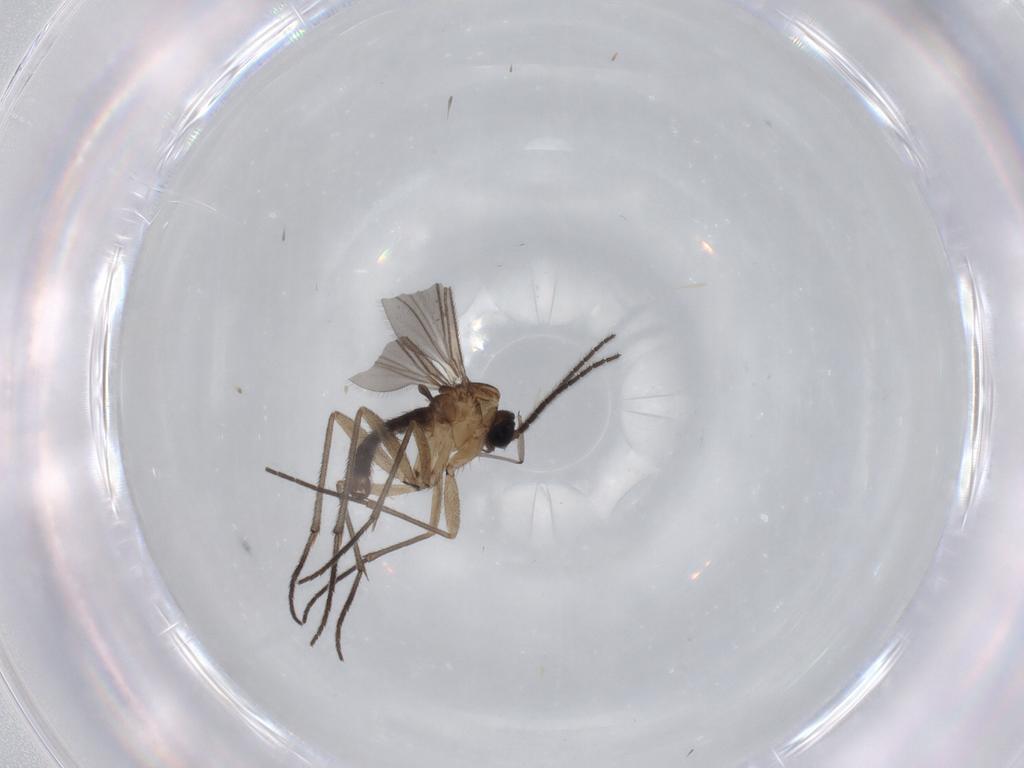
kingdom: Animalia
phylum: Arthropoda
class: Insecta
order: Diptera
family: Sciaridae
